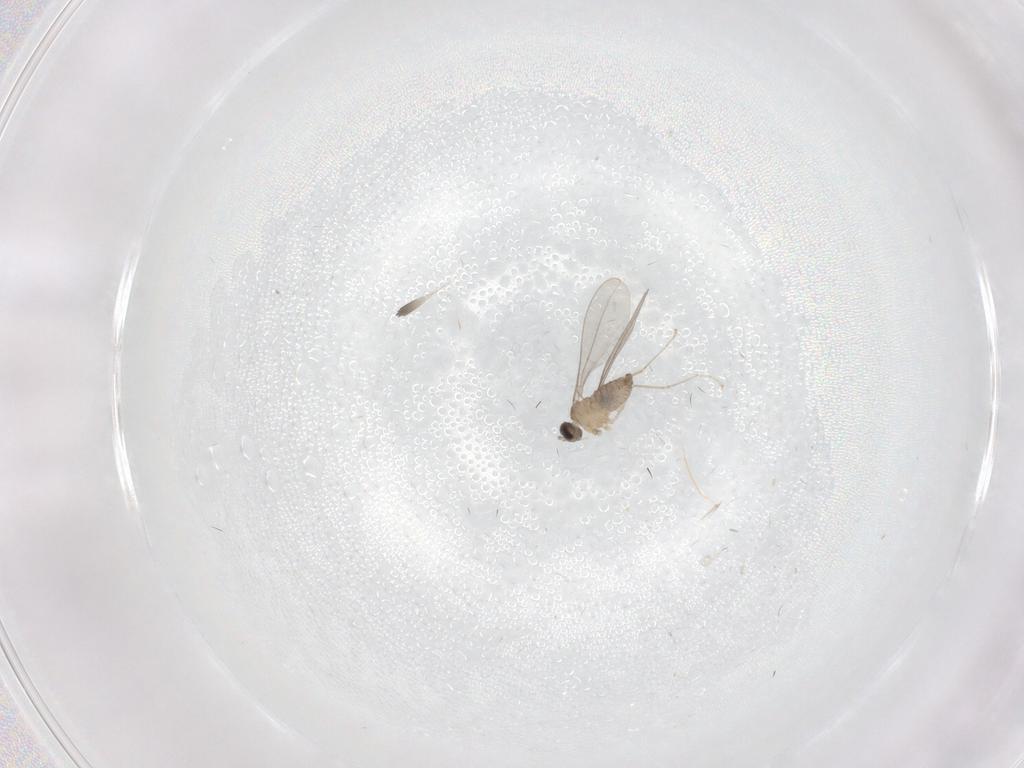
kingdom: Animalia
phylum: Arthropoda
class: Insecta
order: Diptera
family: Cecidomyiidae
